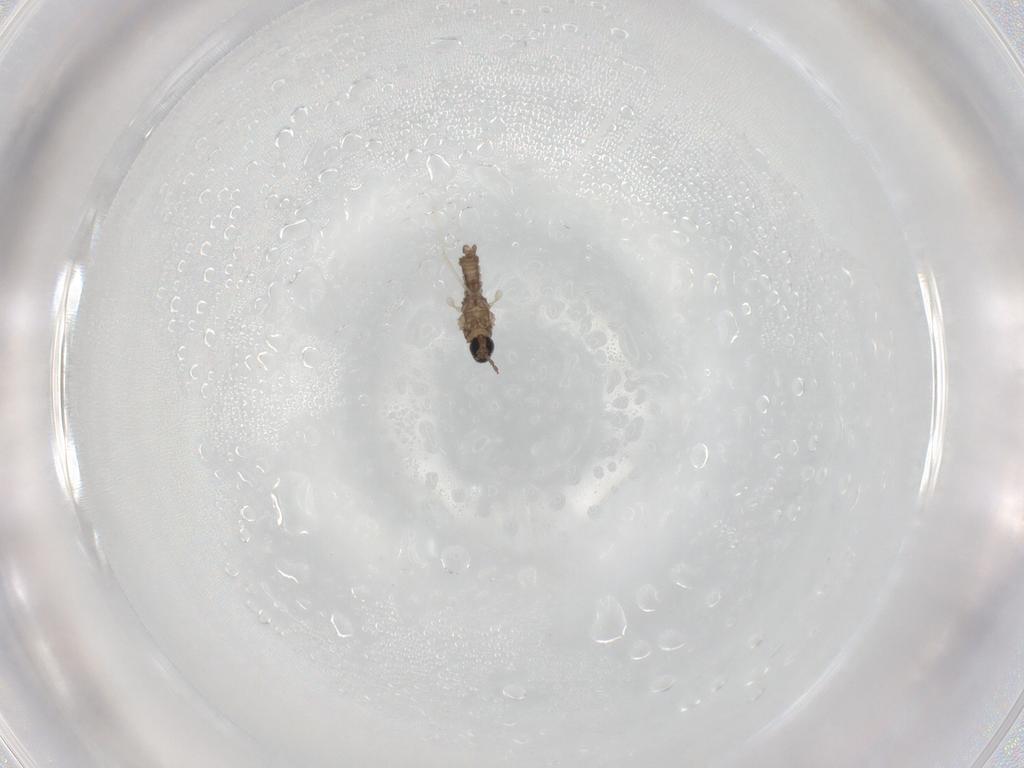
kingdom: Animalia
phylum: Arthropoda
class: Insecta
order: Diptera
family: Cecidomyiidae
